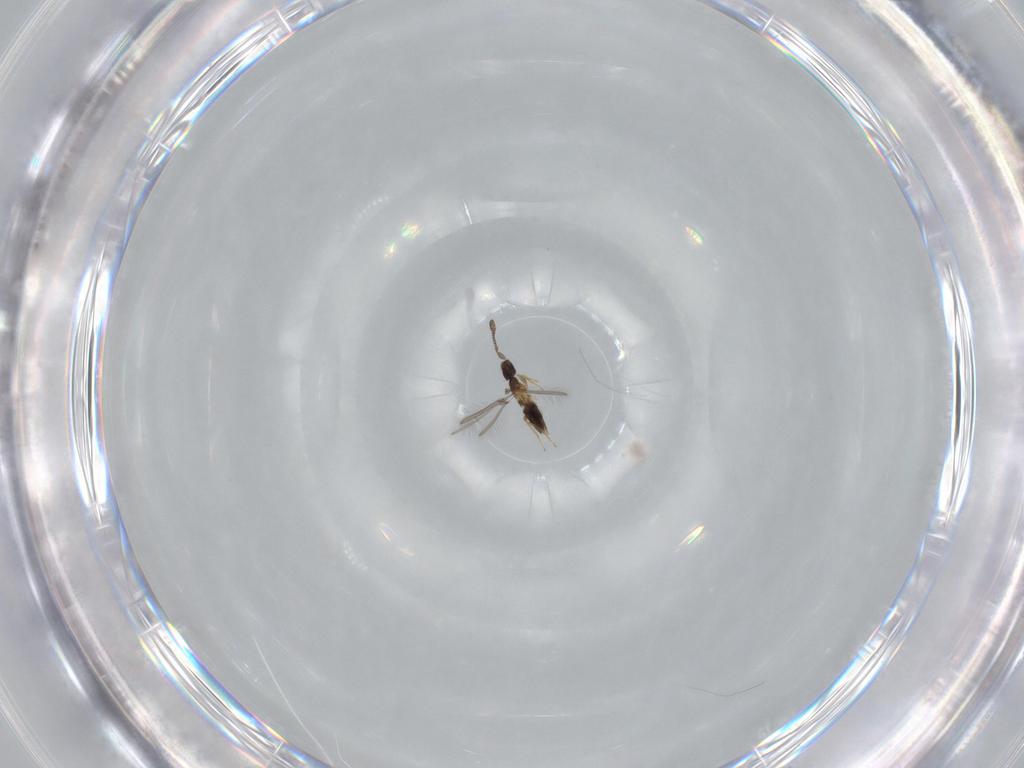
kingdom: Animalia
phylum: Arthropoda
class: Insecta
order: Hymenoptera
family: Mymaridae
